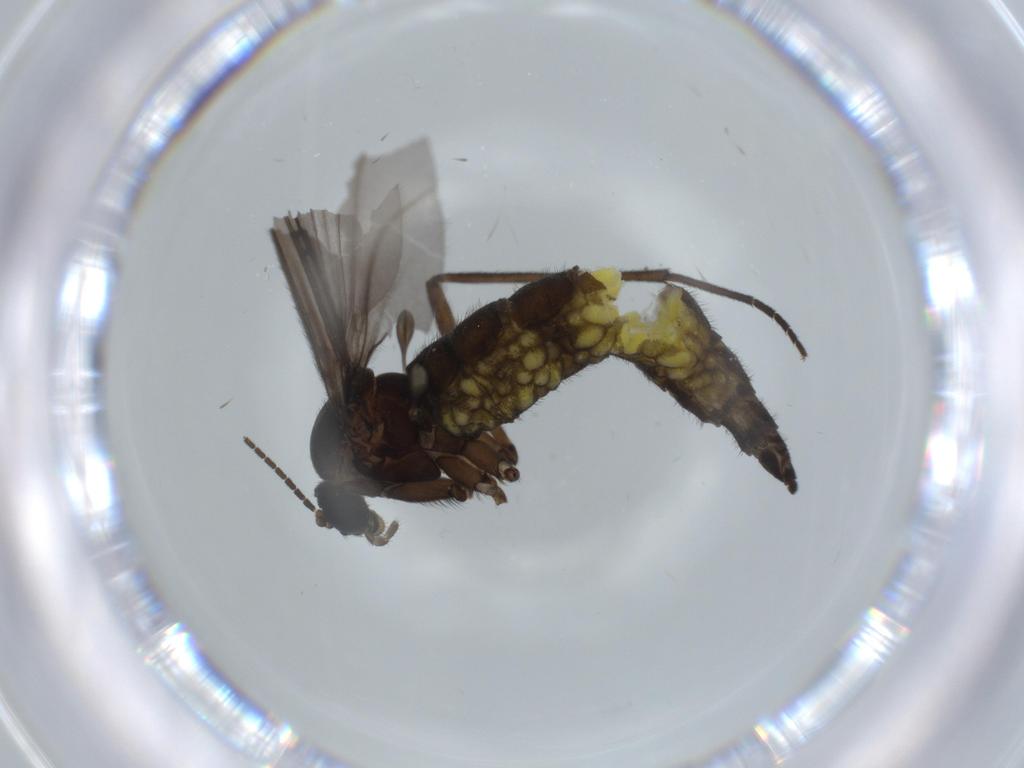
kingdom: Animalia
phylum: Arthropoda
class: Insecta
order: Diptera
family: Sciaridae
